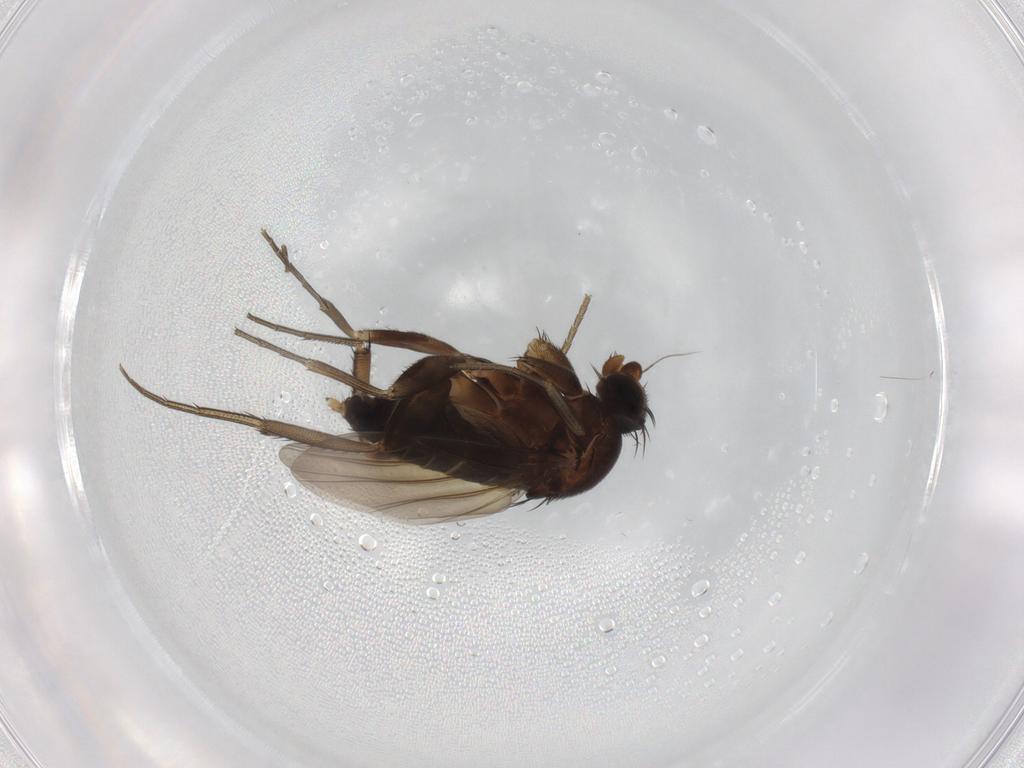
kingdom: Animalia
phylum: Arthropoda
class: Insecta
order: Diptera
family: Phoridae
